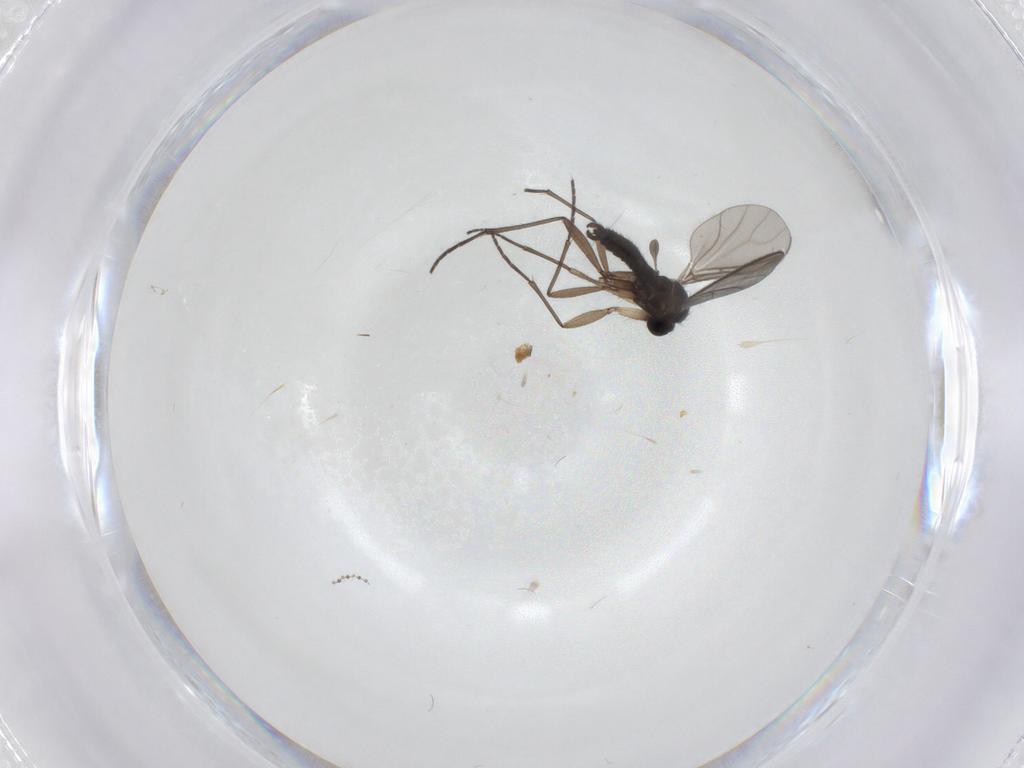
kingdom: Animalia
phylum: Arthropoda
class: Insecta
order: Diptera
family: Cecidomyiidae
